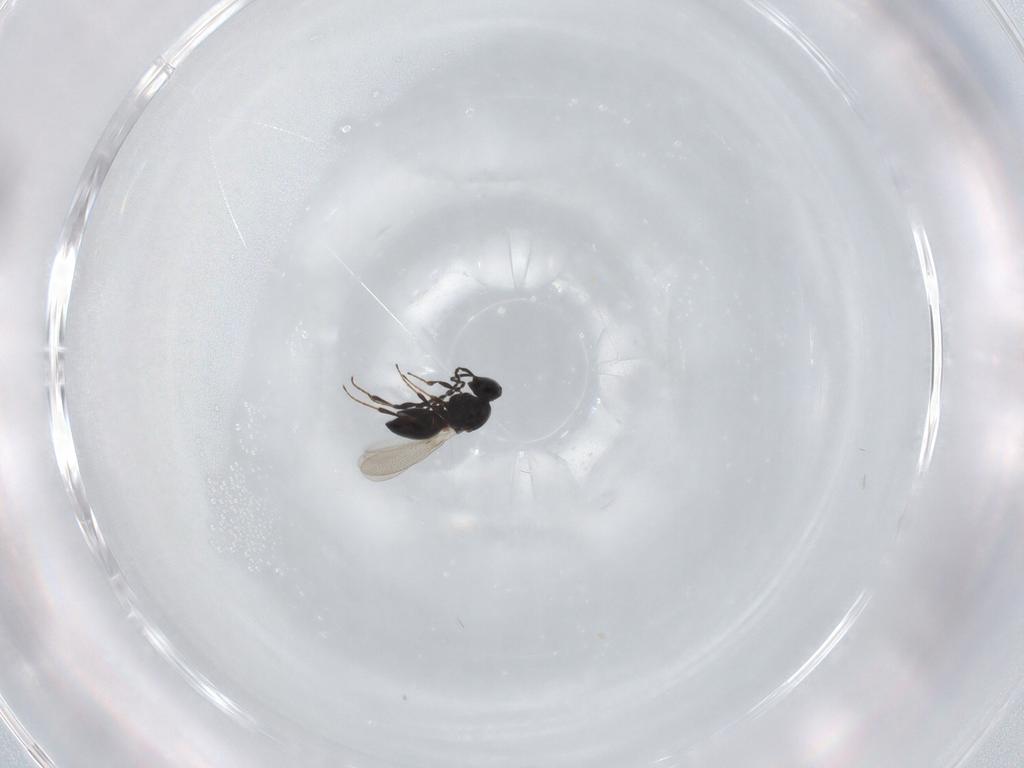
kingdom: Animalia
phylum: Arthropoda
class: Insecta
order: Hymenoptera
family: Platygastridae
